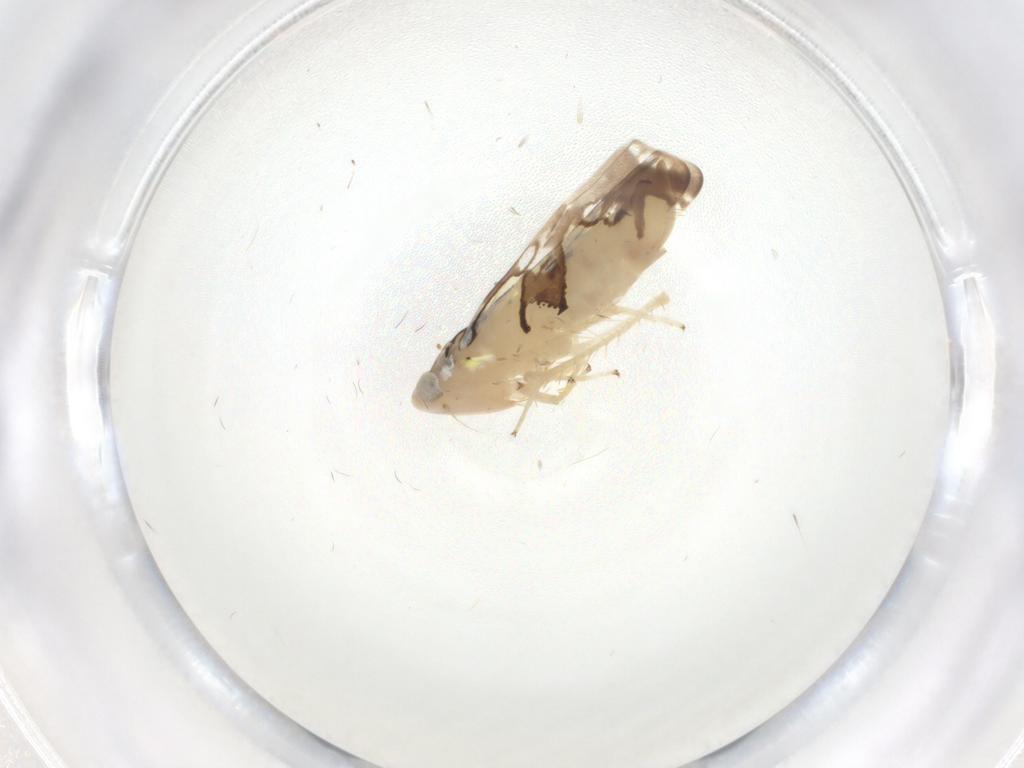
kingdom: Animalia
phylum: Arthropoda
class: Insecta
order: Hemiptera
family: Cicadellidae
